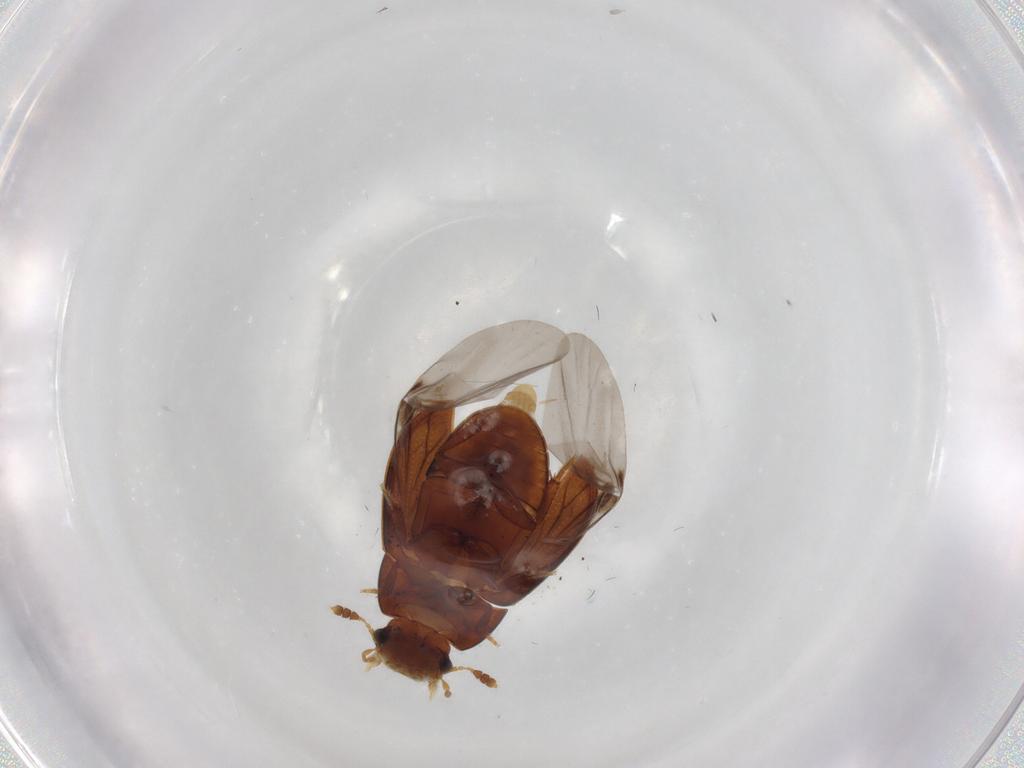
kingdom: Animalia
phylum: Arthropoda
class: Insecta
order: Coleoptera
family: Hydrophilidae
